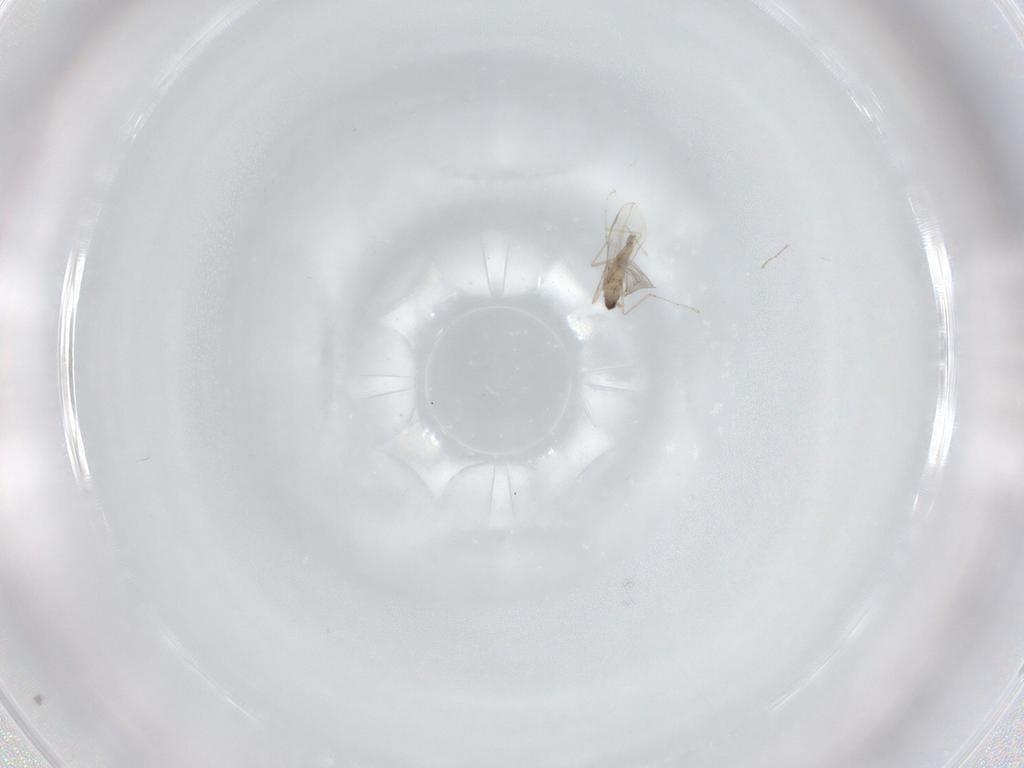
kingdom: Animalia
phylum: Arthropoda
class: Insecta
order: Diptera
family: Cecidomyiidae
